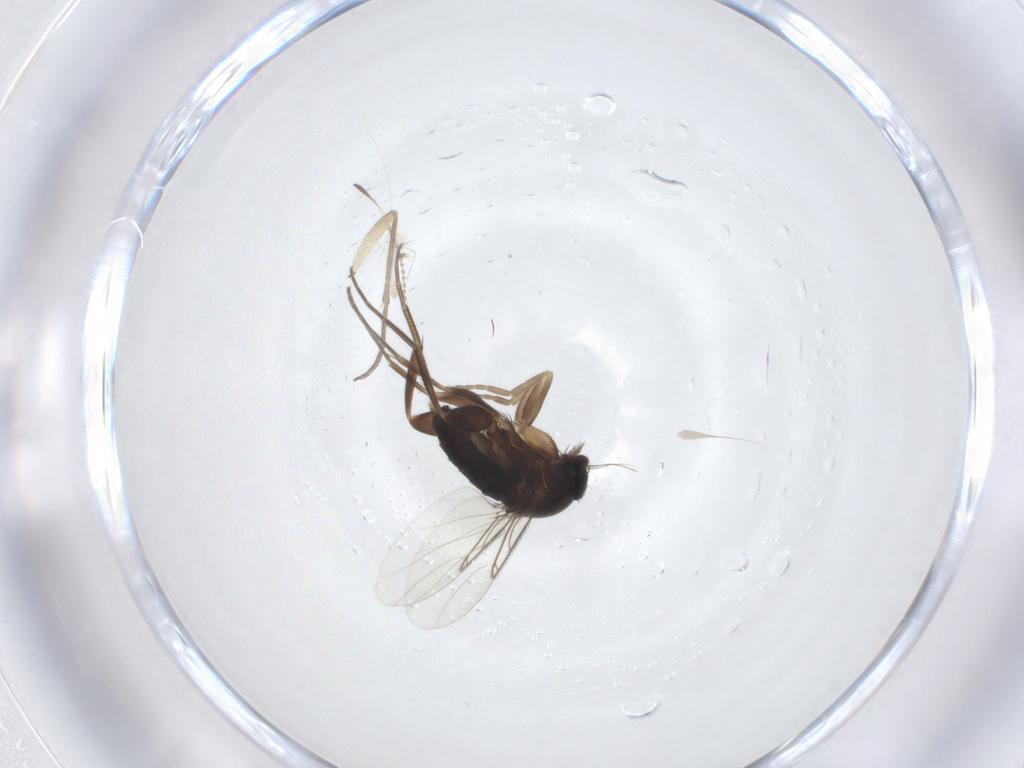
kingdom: Animalia
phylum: Arthropoda
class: Insecta
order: Diptera
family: Phoridae
